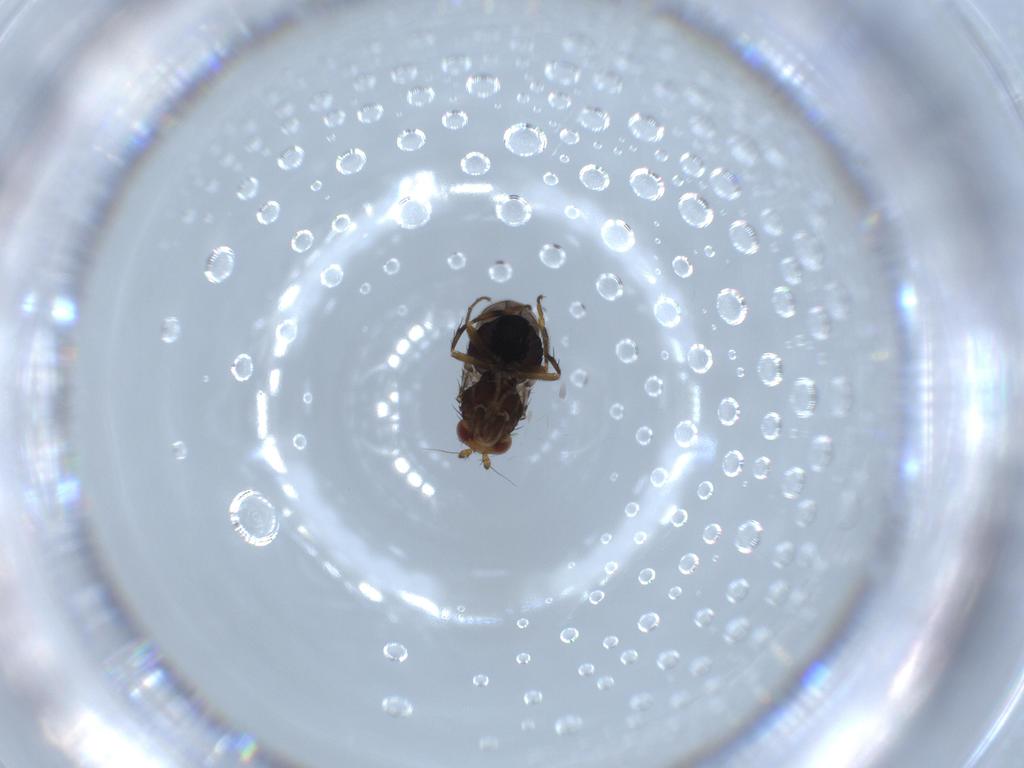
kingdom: Animalia
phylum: Arthropoda
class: Insecta
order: Diptera
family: Sphaeroceridae
